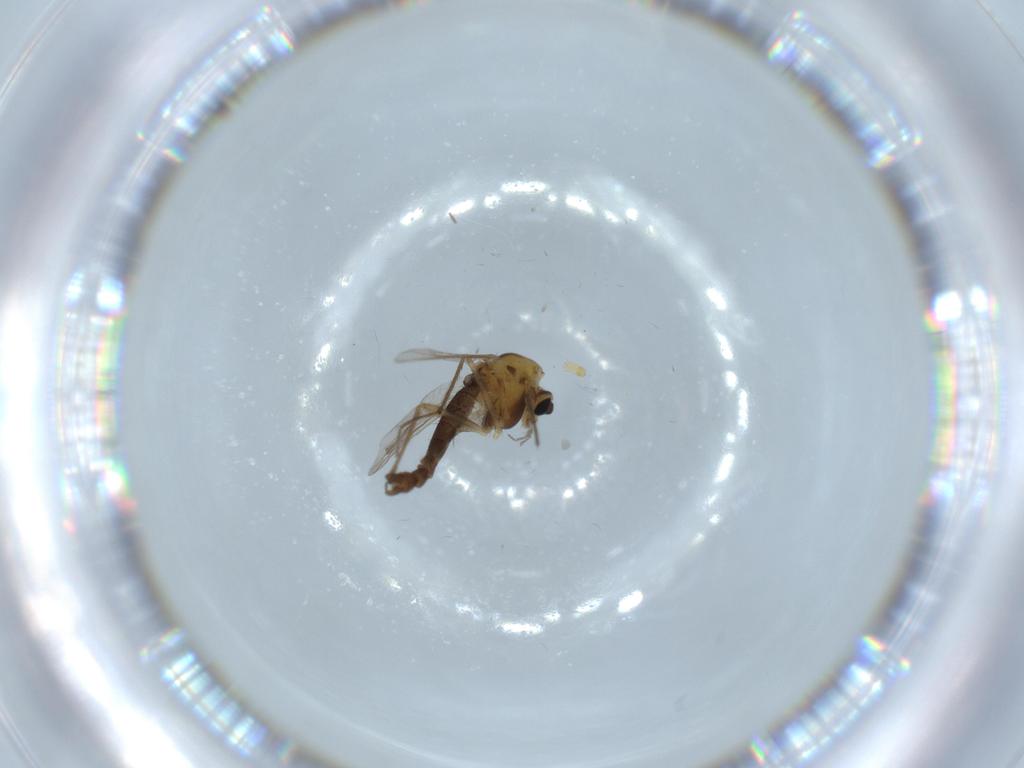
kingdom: Animalia
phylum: Arthropoda
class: Insecta
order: Diptera
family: Chironomidae
